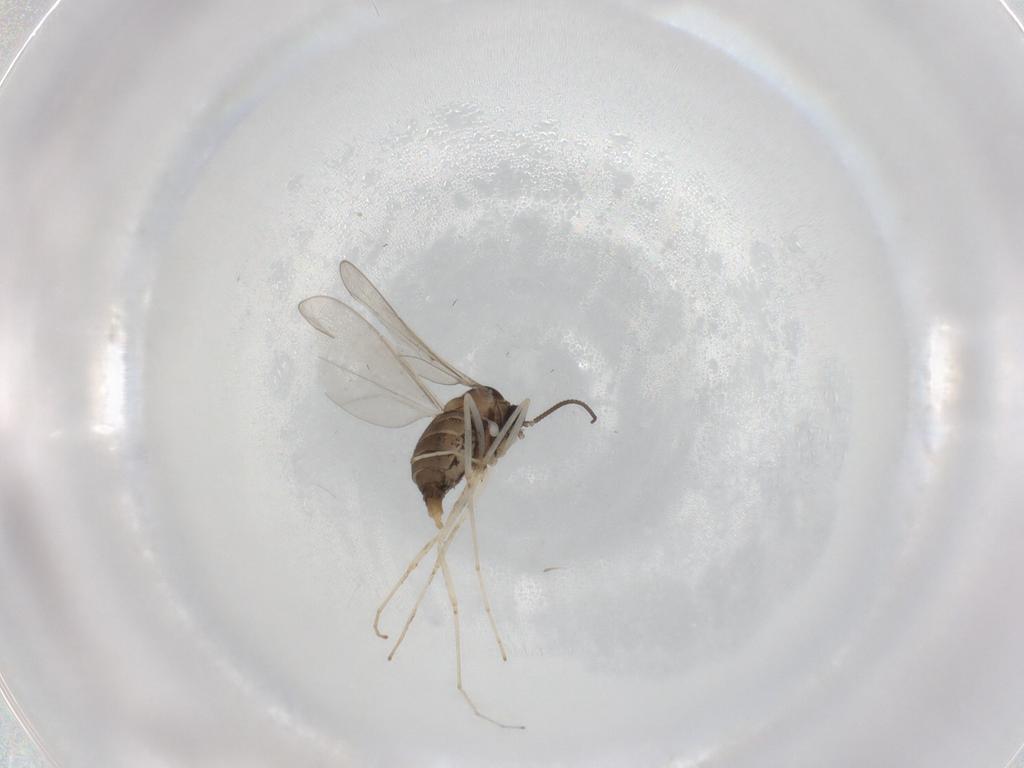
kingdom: Animalia
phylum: Arthropoda
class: Insecta
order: Diptera
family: Cecidomyiidae
